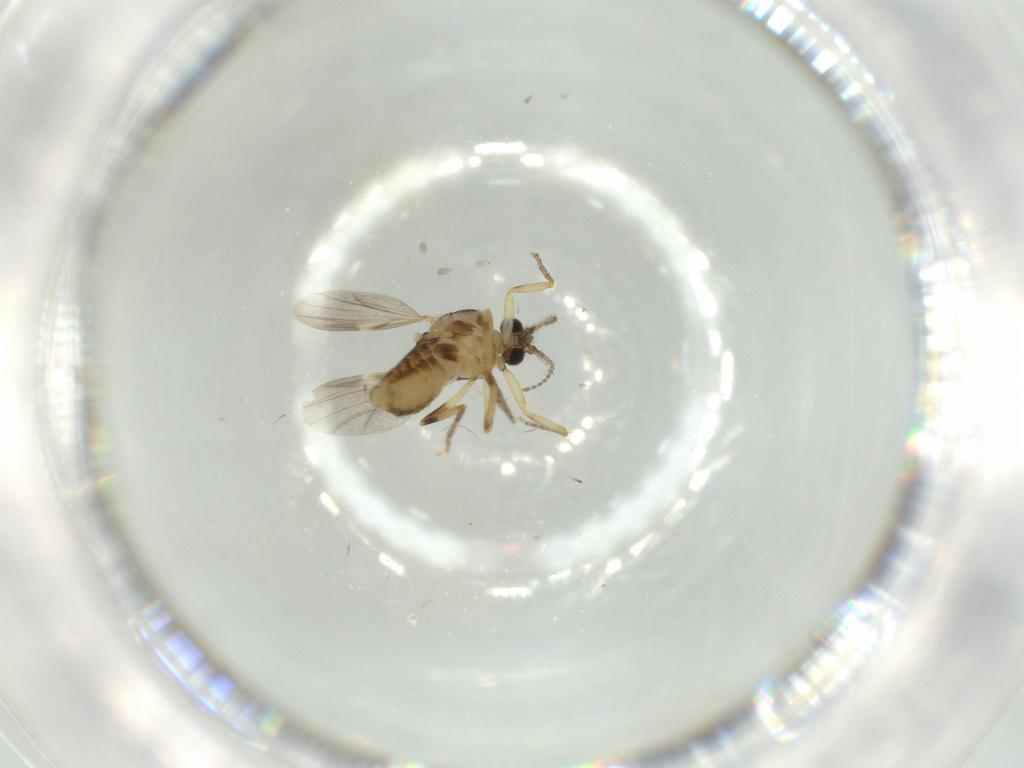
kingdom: Animalia
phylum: Arthropoda
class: Insecta
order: Diptera
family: Ceratopogonidae
